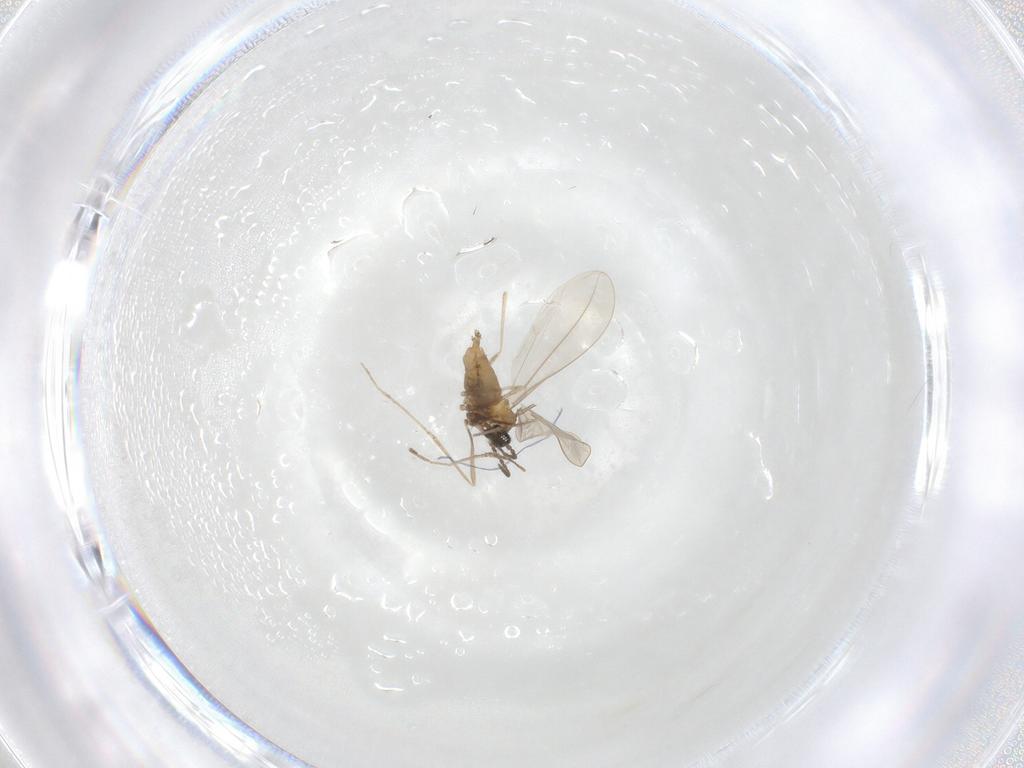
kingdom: Animalia
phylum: Arthropoda
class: Insecta
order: Diptera
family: Cecidomyiidae
